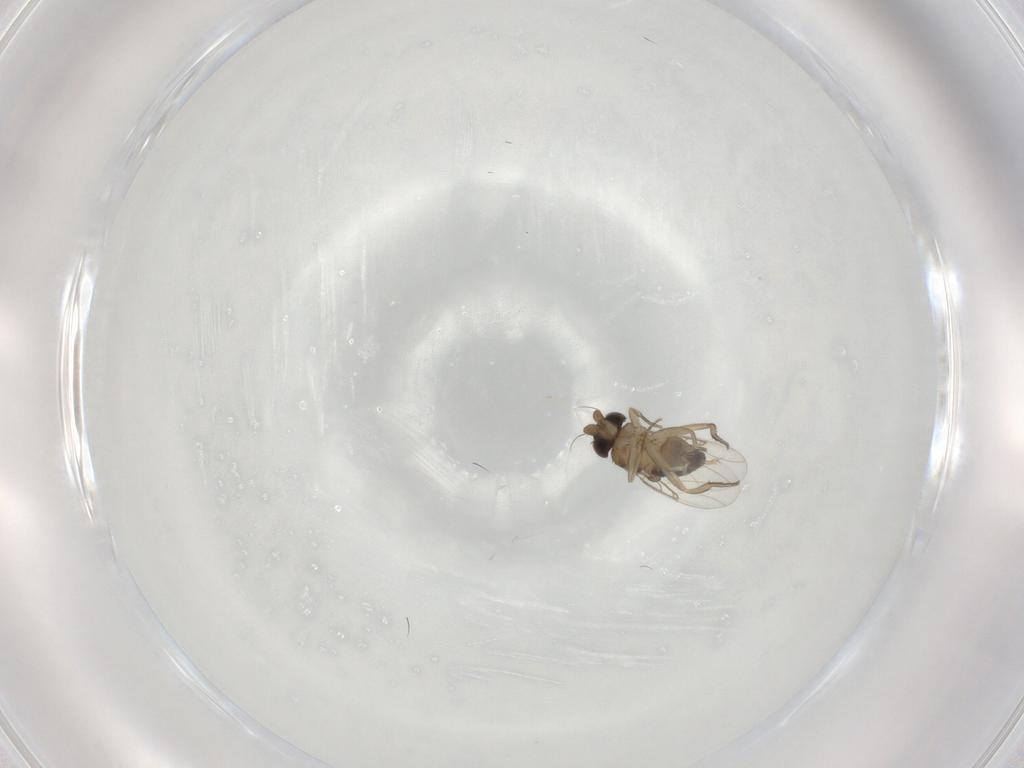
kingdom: Animalia
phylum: Arthropoda
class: Insecta
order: Diptera
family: Phoridae
